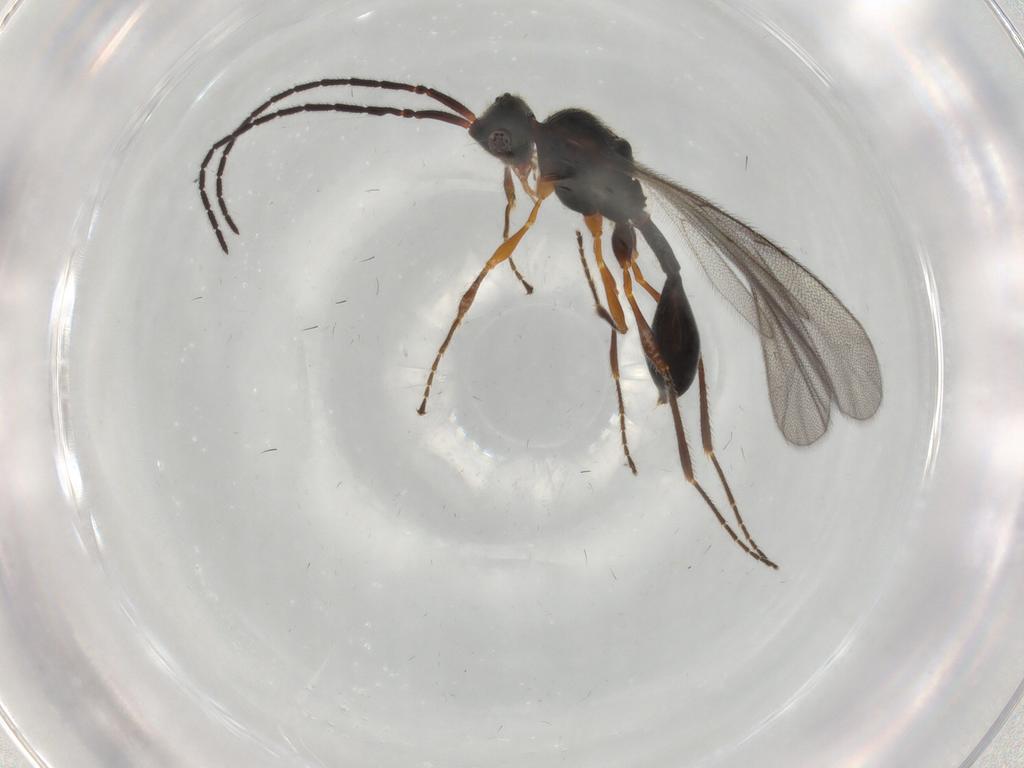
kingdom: Animalia
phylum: Arthropoda
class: Insecta
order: Hymenoptera
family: Diapriidae
